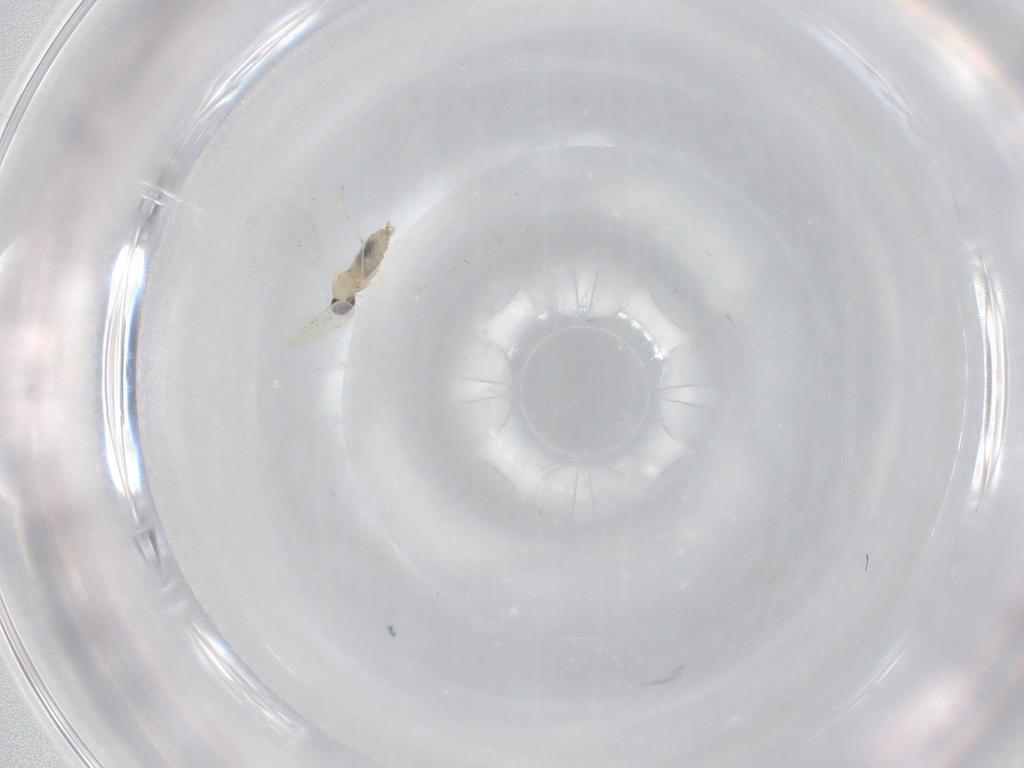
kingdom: Animalia
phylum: Arthropoda
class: Insecta
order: Diptera
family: Cecidomyiidae
